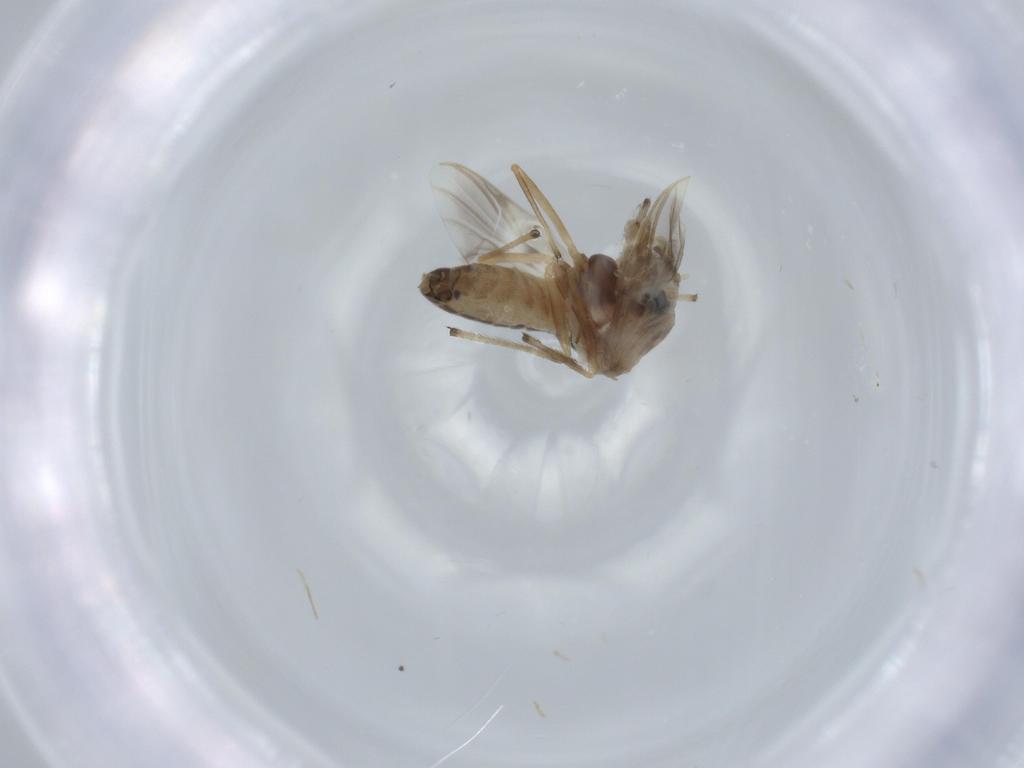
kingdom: Animalia
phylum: Arthropoda
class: Insecta
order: Diptera
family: Chironomidae
